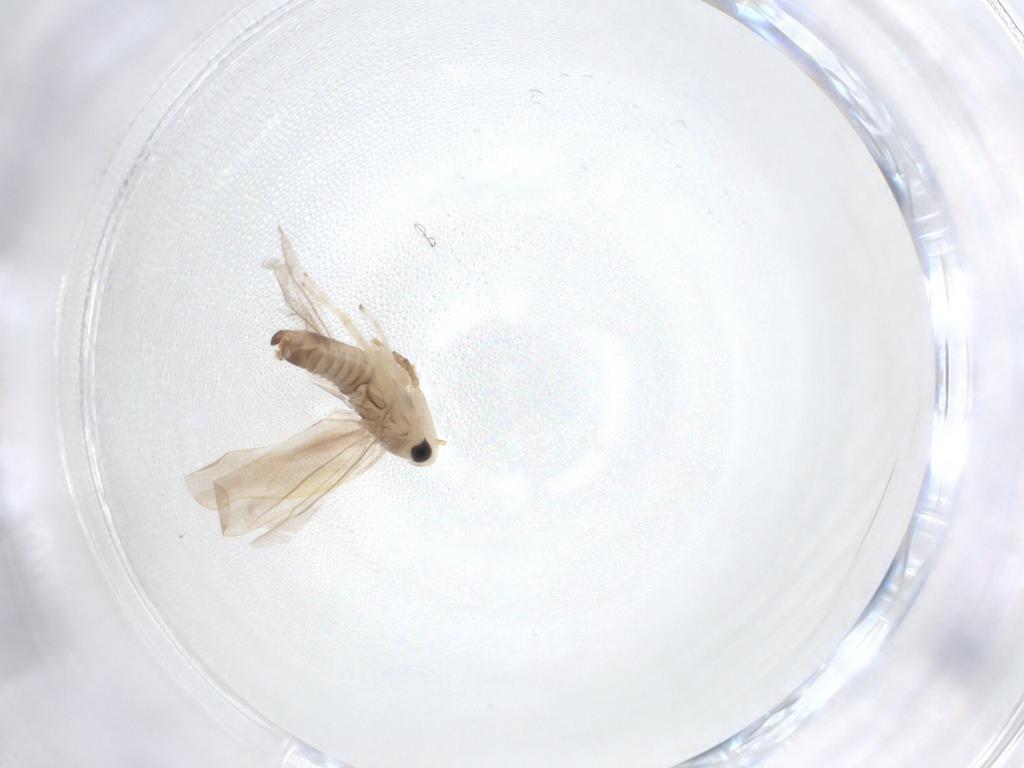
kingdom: Animalia
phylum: Arthropoda
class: Insecta
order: Hemiptera
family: Cicadellidae
